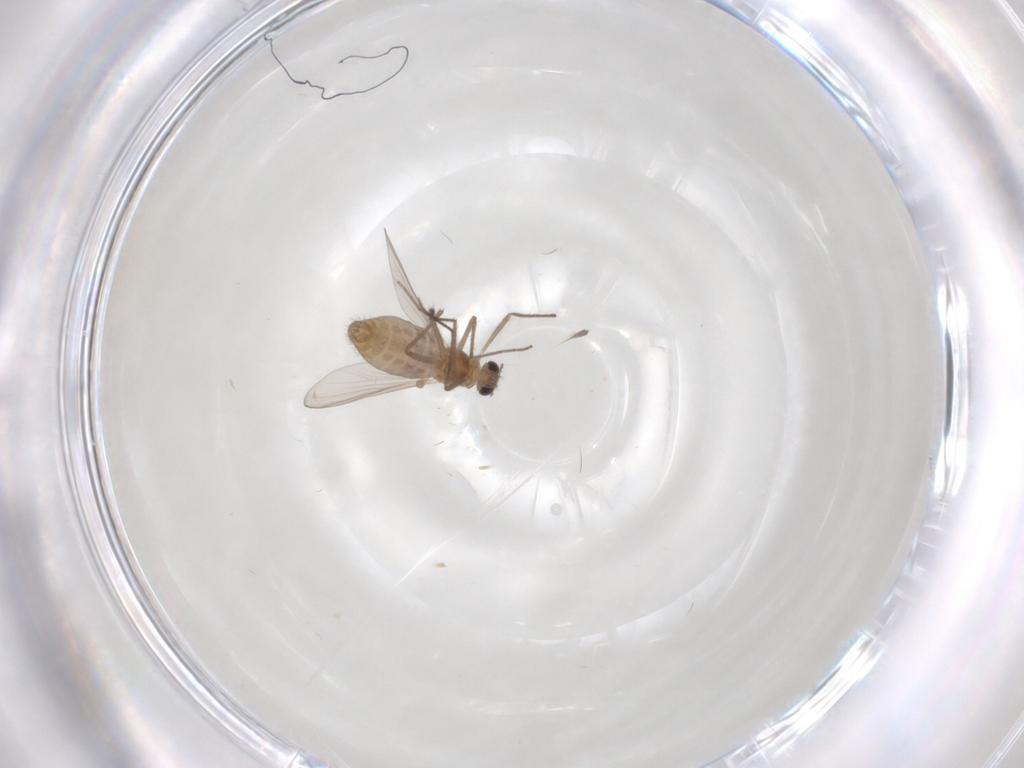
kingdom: Animalia
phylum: Arthropoda
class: Insecta
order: Diptera
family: Chironomidae
